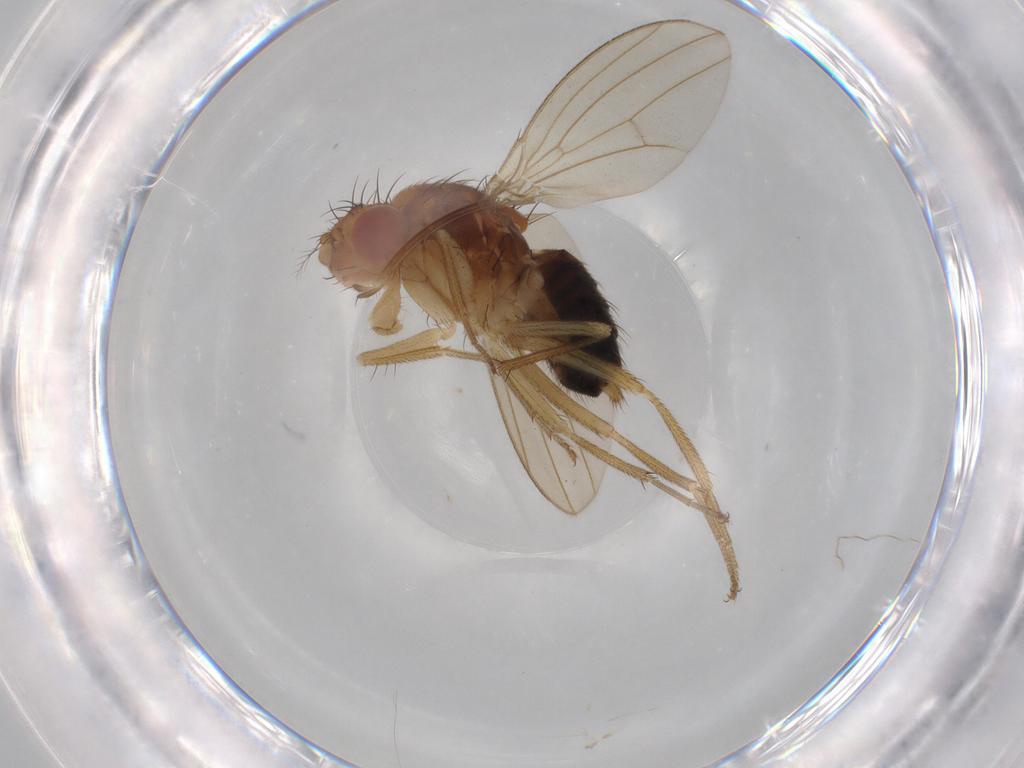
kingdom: Animalia
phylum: Arthropoda
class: Insecta
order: Diptera
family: Drosophilidae
